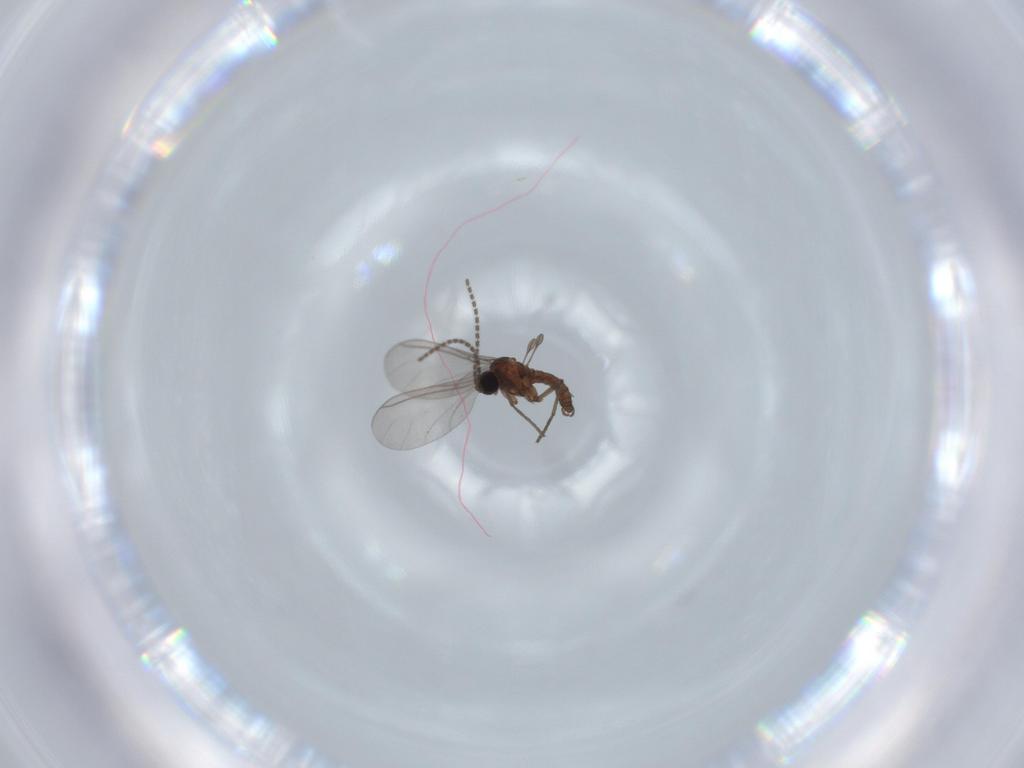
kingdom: Animalia
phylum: Arthropoda
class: Insecta
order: Diptera
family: Sciaridae
